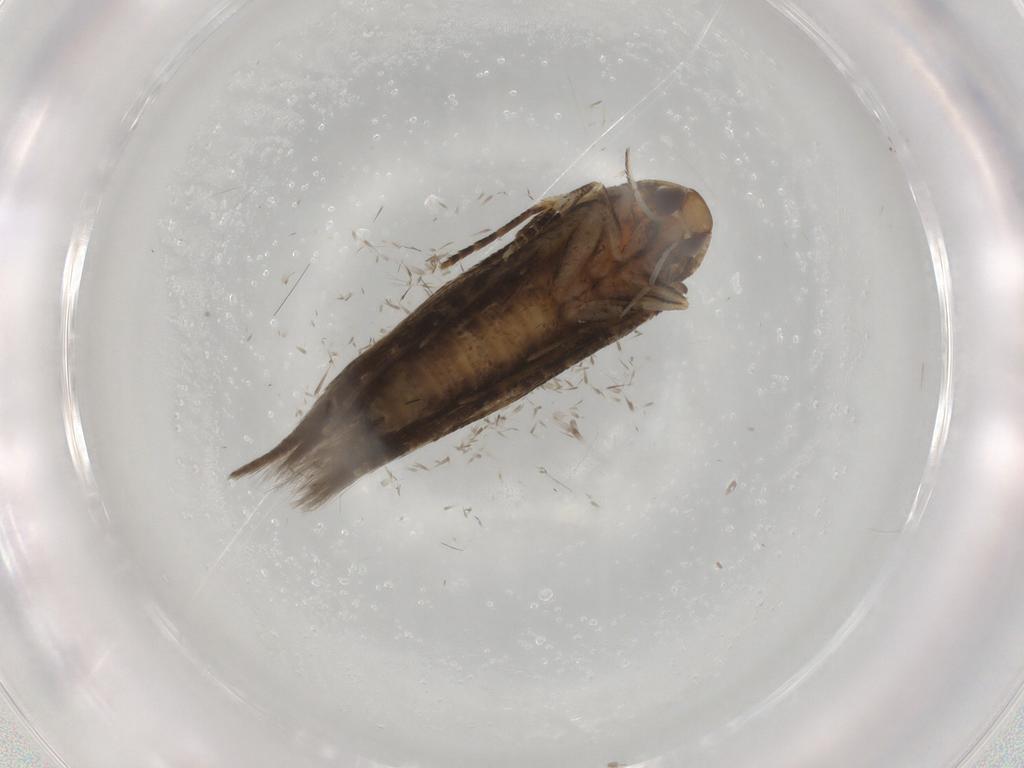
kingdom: Animalia
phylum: Arthropoda
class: Insecta
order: Lepidoptera
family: Cosmopterigidae
